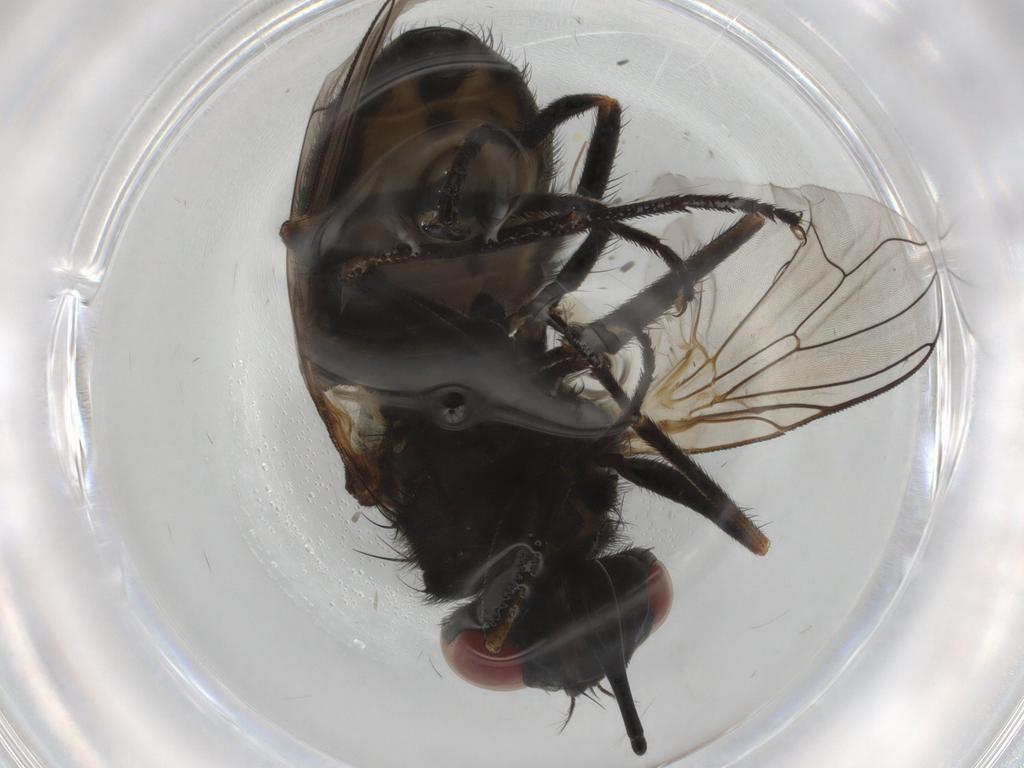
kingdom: Animalia
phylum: Arthropoda
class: Insecta
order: Diptera
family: Muscidae
